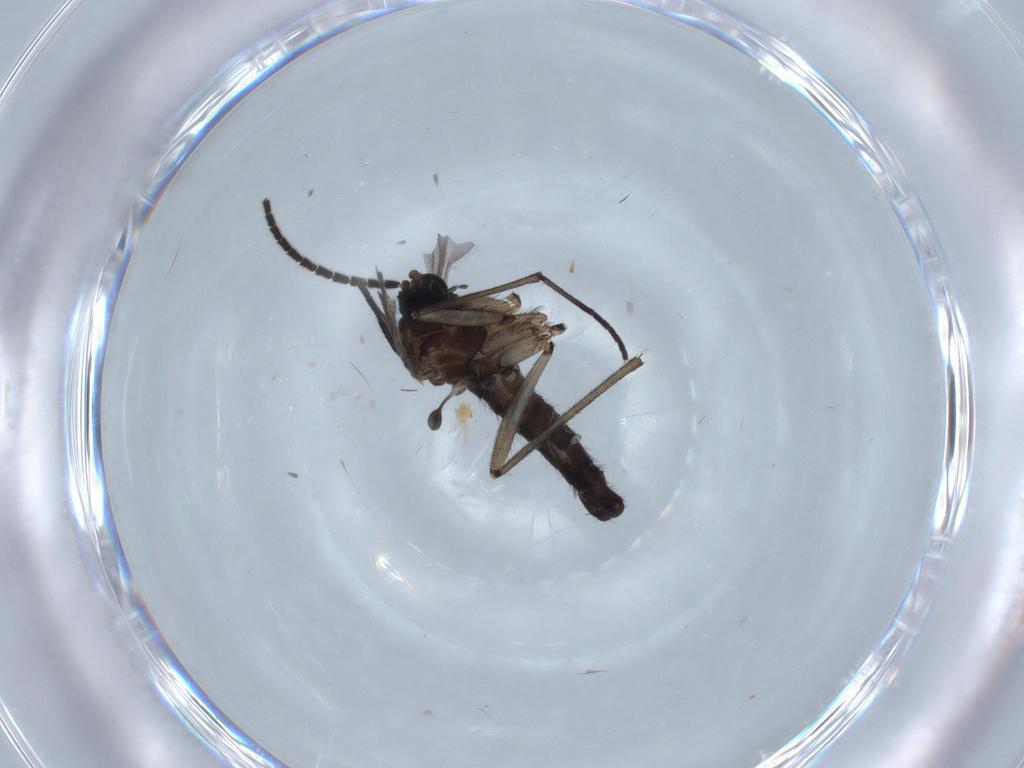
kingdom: Animalia
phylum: Arthropoda
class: Insecta
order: Diptera
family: Sciaridae
